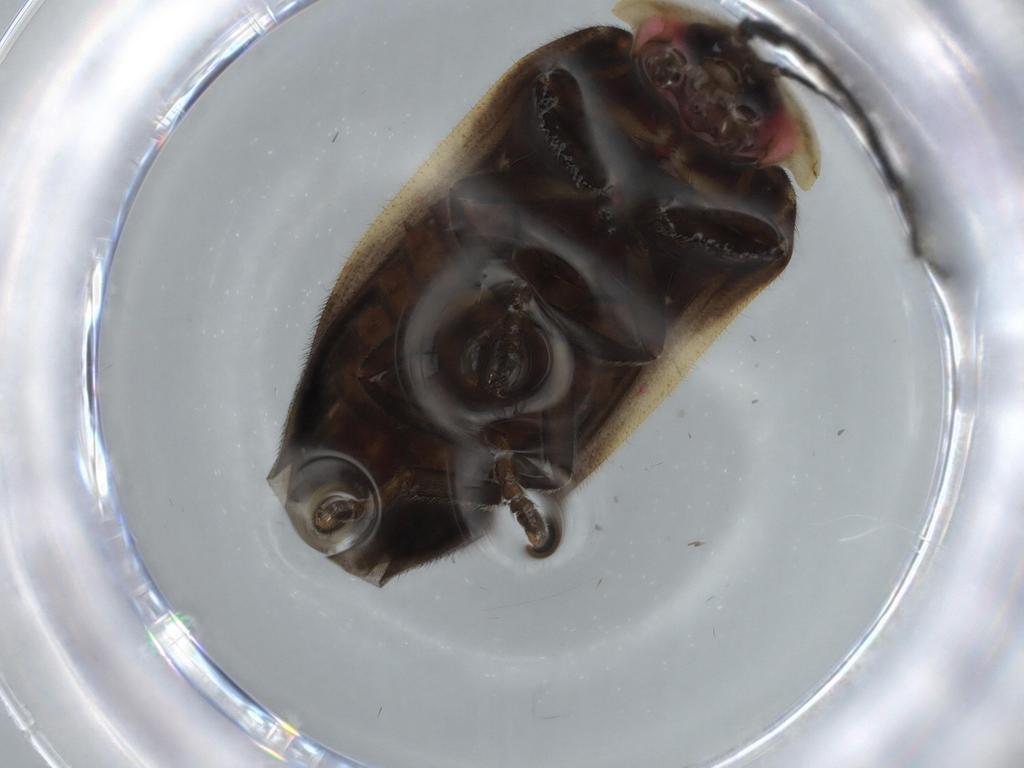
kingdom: Animalia
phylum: Arthropoda
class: Insecta
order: Coleoptera
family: Lampyridae
